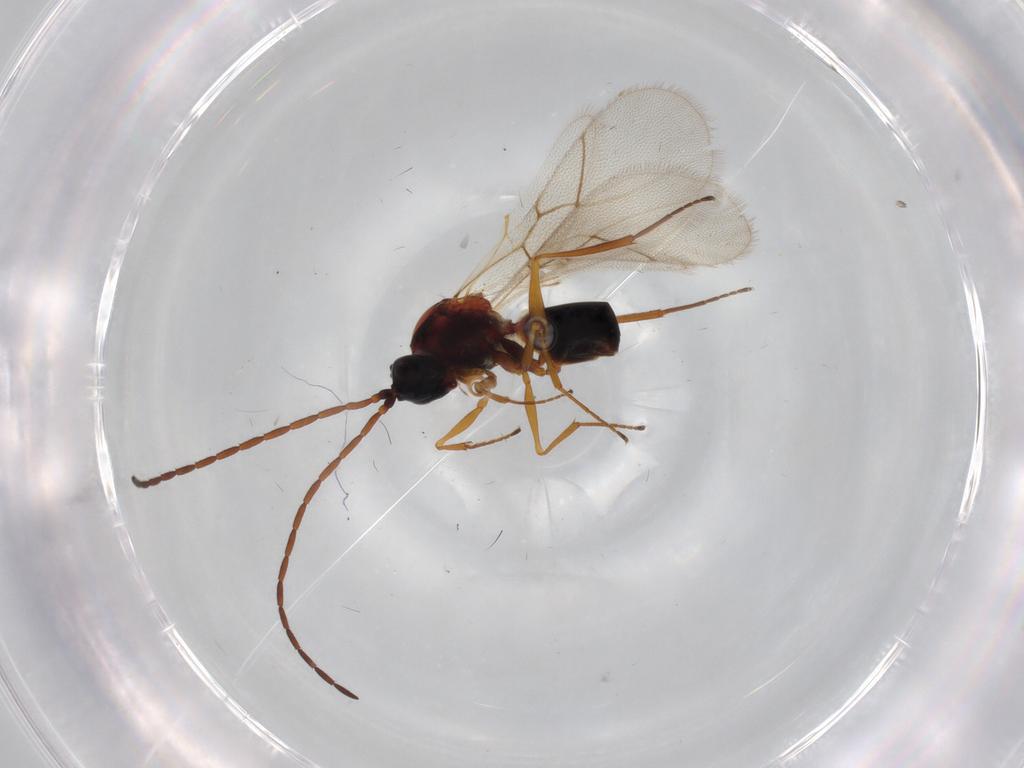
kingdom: Animalia
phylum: Arthropoda
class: Insecta
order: Hymenoptera
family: Figitidae
